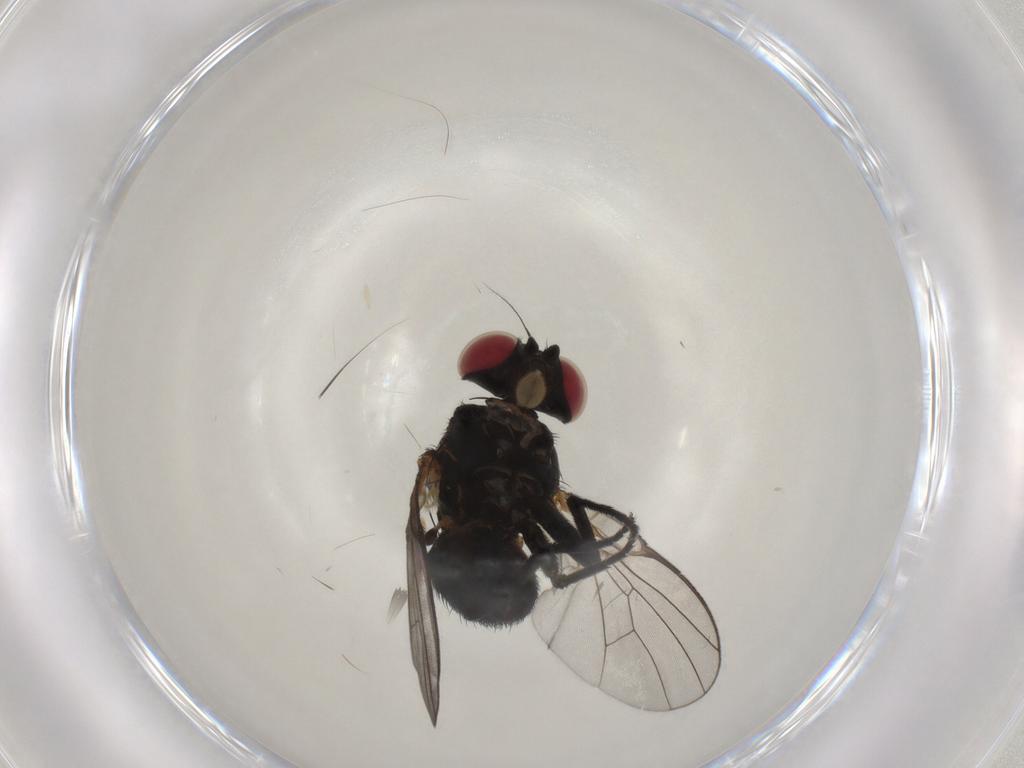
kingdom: Animalia
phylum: Arthropoda
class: Insecta
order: Diptera
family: Agromyzidae
